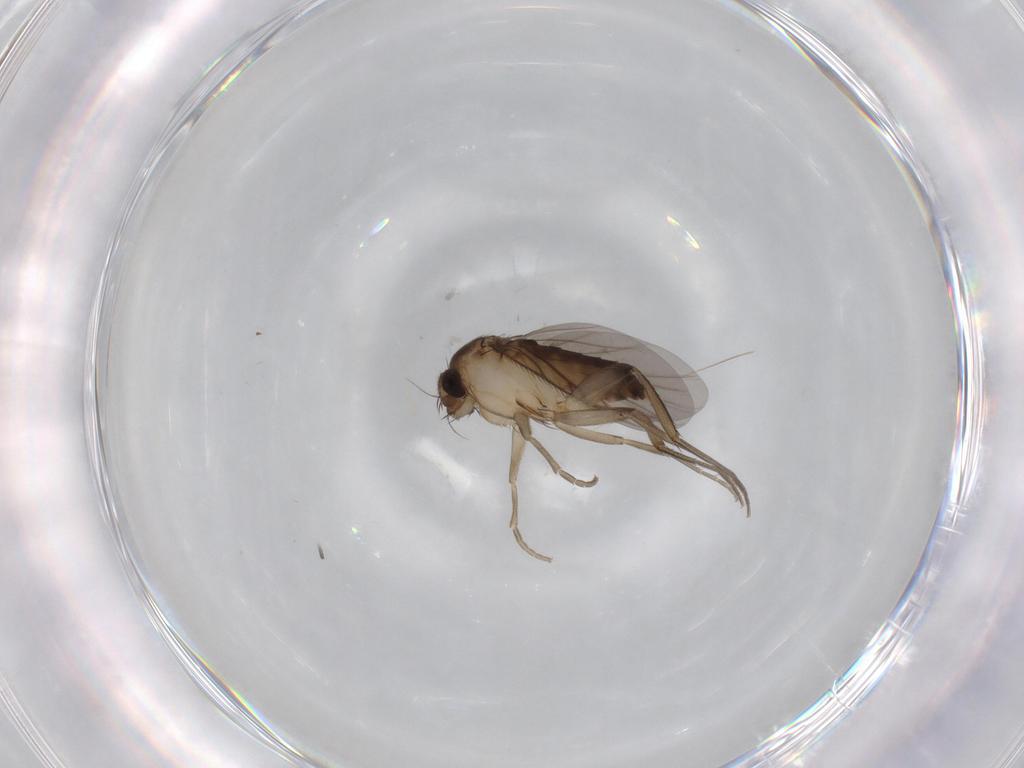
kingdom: Animalia
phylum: Arthropoda
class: Insecta
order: Diptera
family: Phoridae
